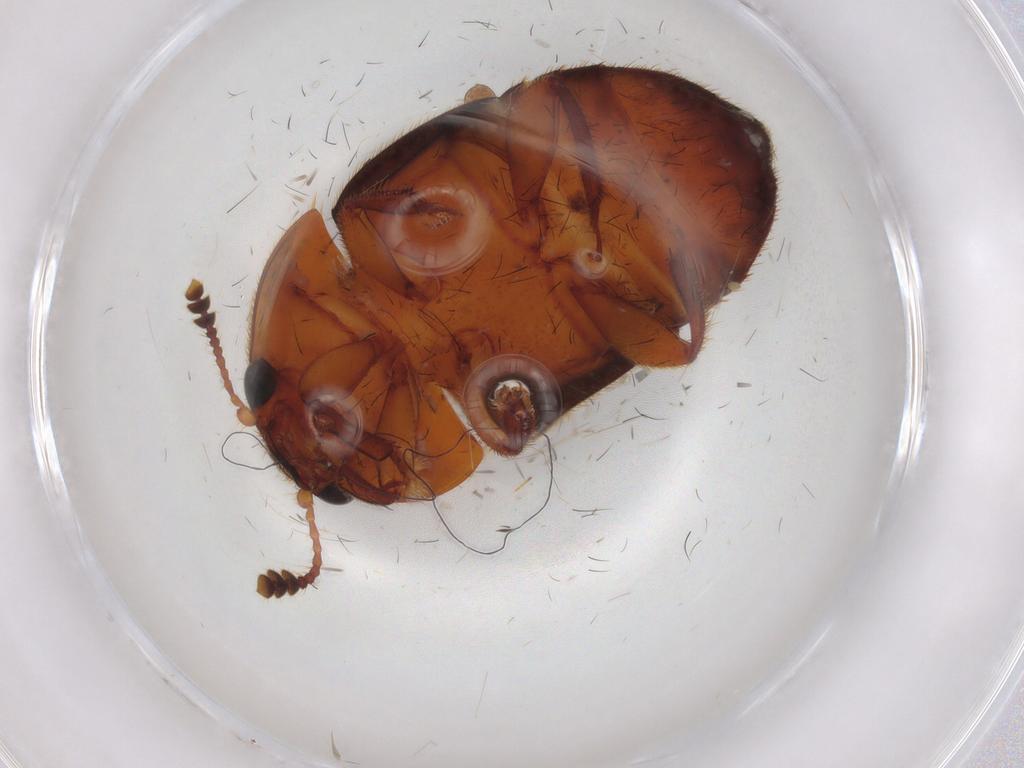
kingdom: Animalia
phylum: Arthropoda
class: Insecta
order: Coleoptera
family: Nitidulidae
